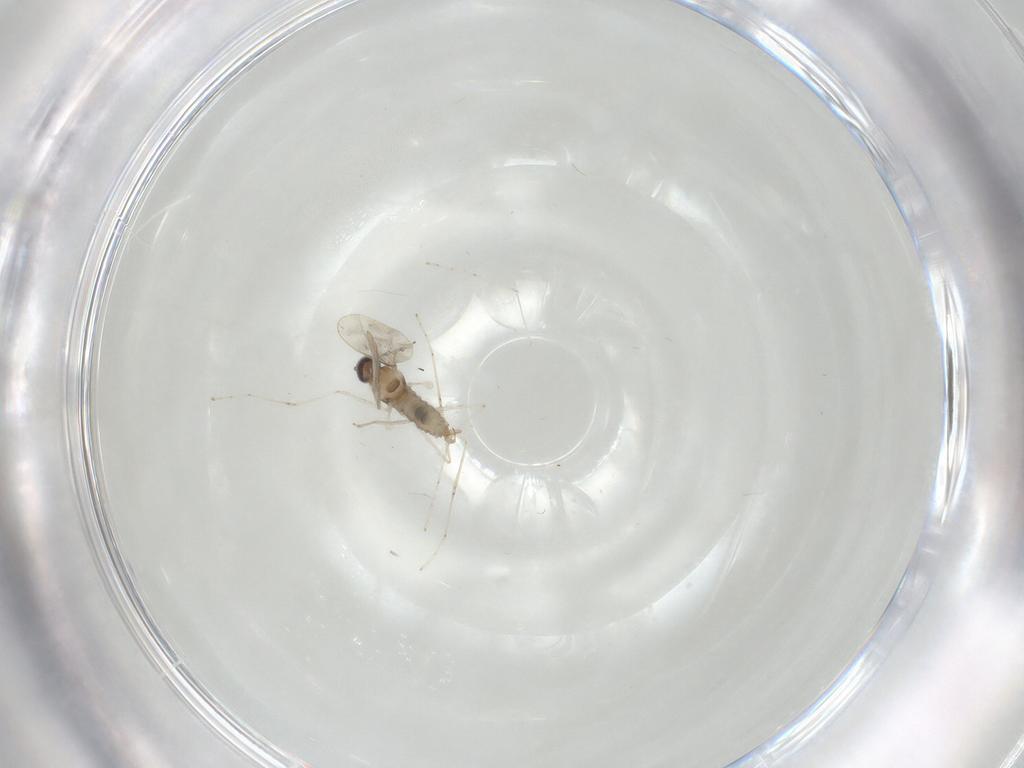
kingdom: Animalia
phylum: Arthropoda
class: Insecta
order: Diptera
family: Cecidomyiidae
